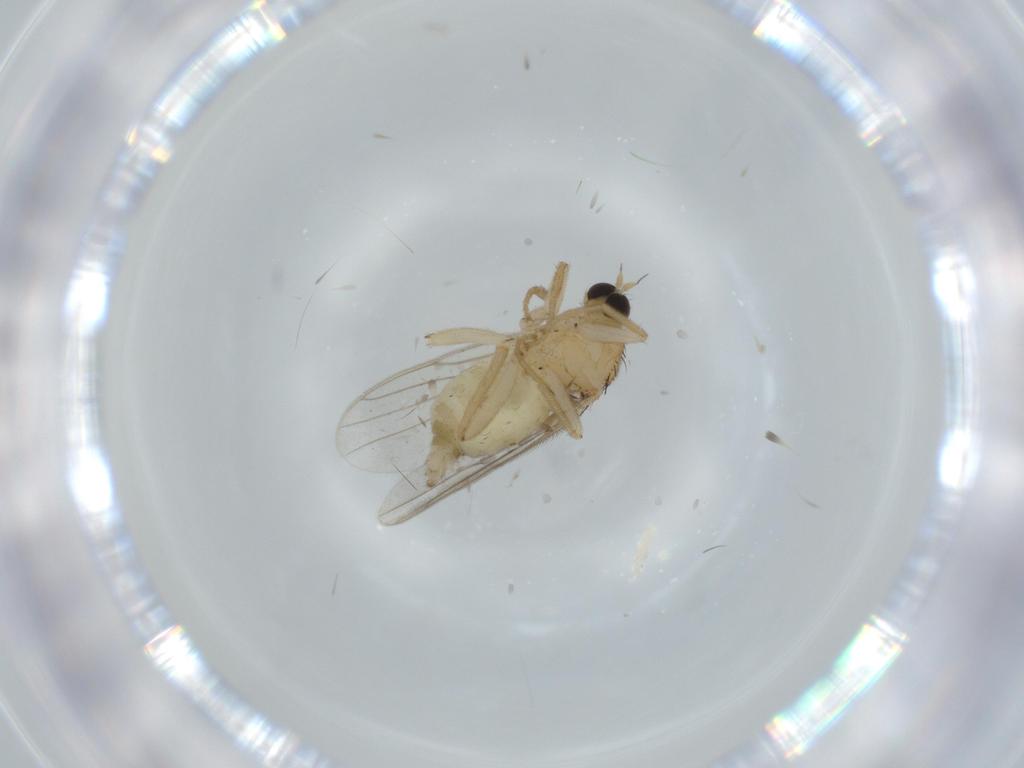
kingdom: Animalia
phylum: Arthropoda
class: Insecta
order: Diptera
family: Hybotidae
